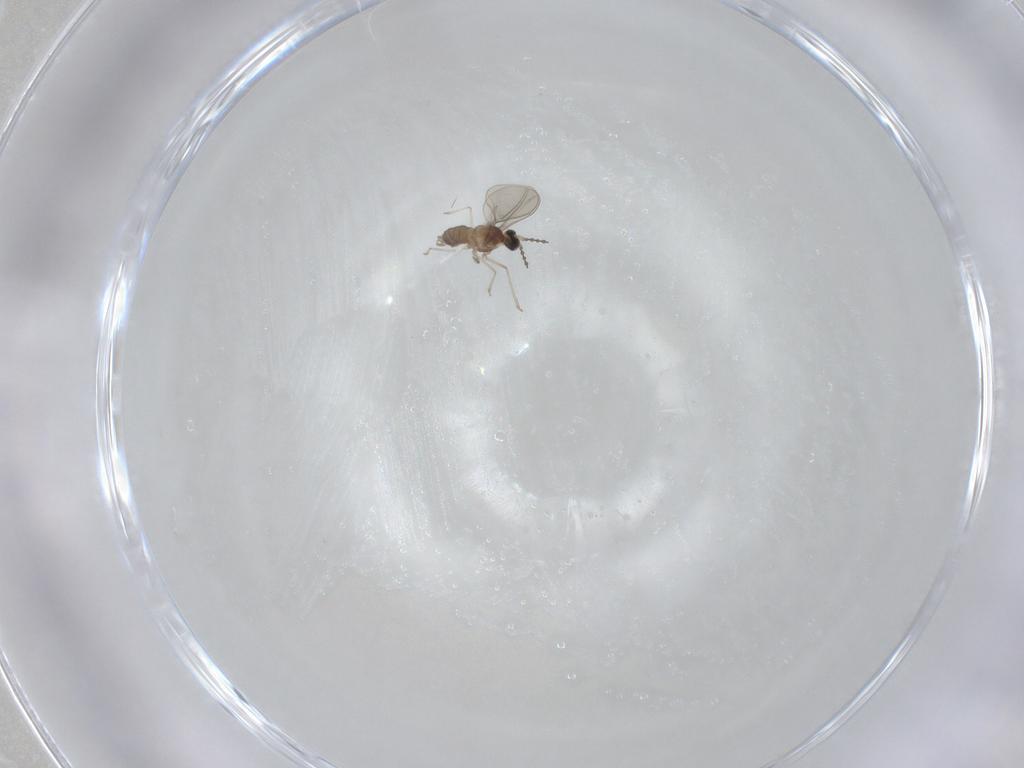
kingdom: Animalia
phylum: Arthropoda
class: Insecta
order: Diptera
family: Cecidomyiidae
